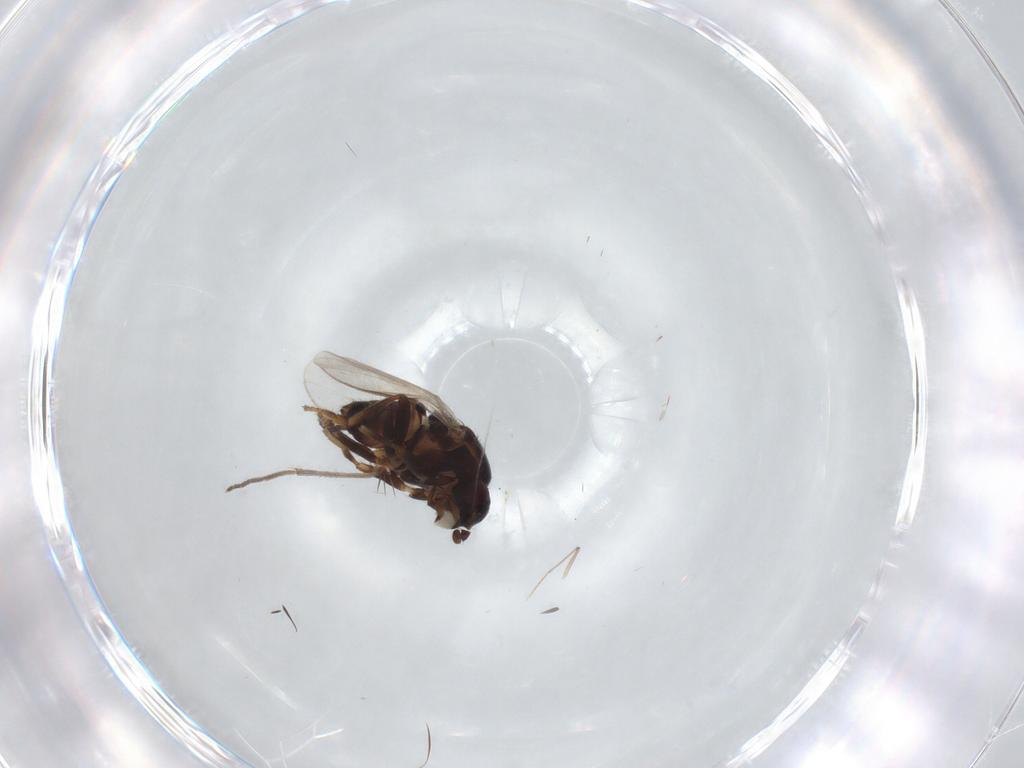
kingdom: Animalia
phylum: Arthropoda
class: Insecta
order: Diptera
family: Sphaeroceridae
